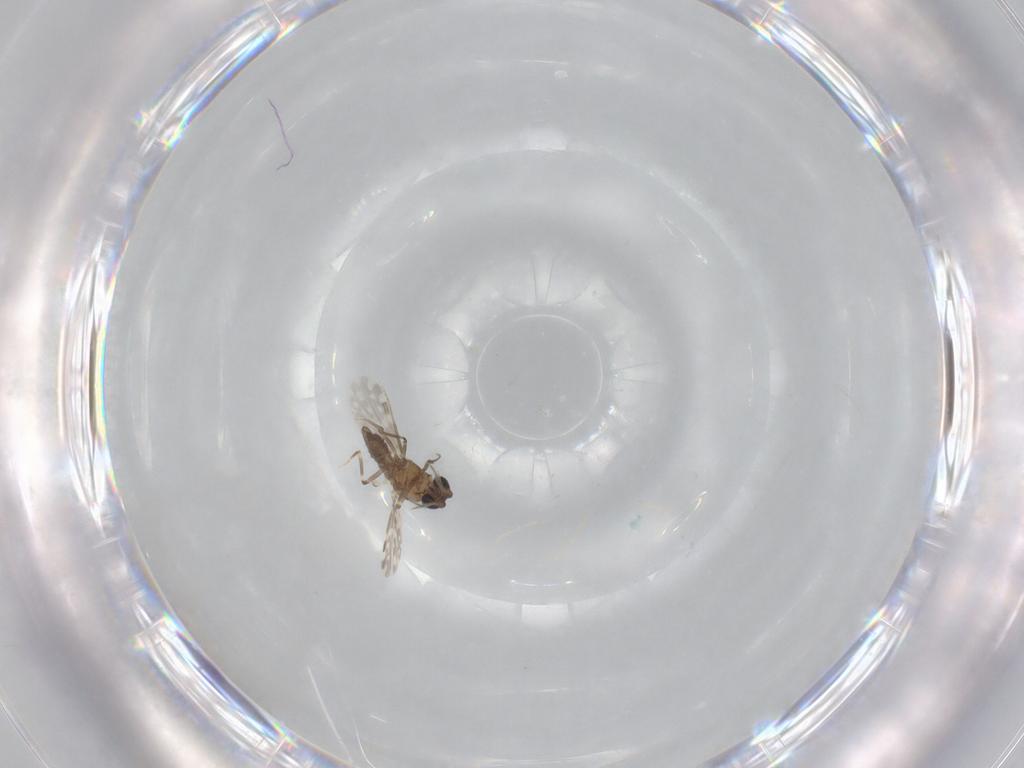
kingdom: Animalia
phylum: Arthropoda
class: Insecta
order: Diptera
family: Ceratopogonidae
